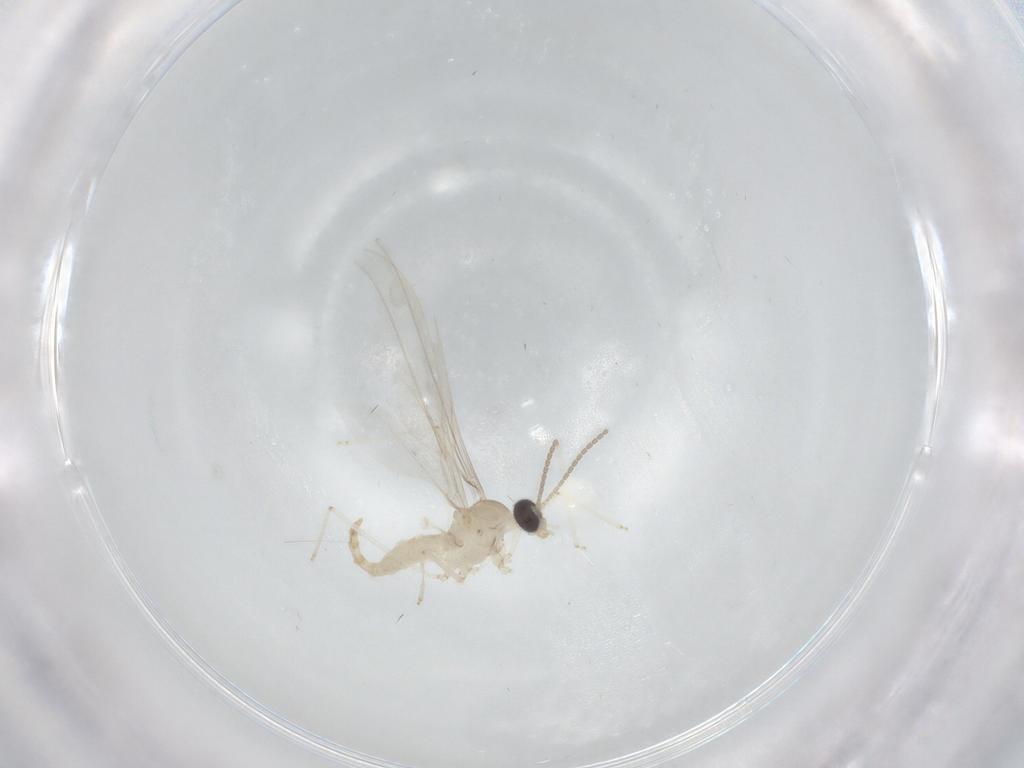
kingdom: Animalia
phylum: Arthropoda
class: Insecta
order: Diptera
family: Cecidomyiidae
